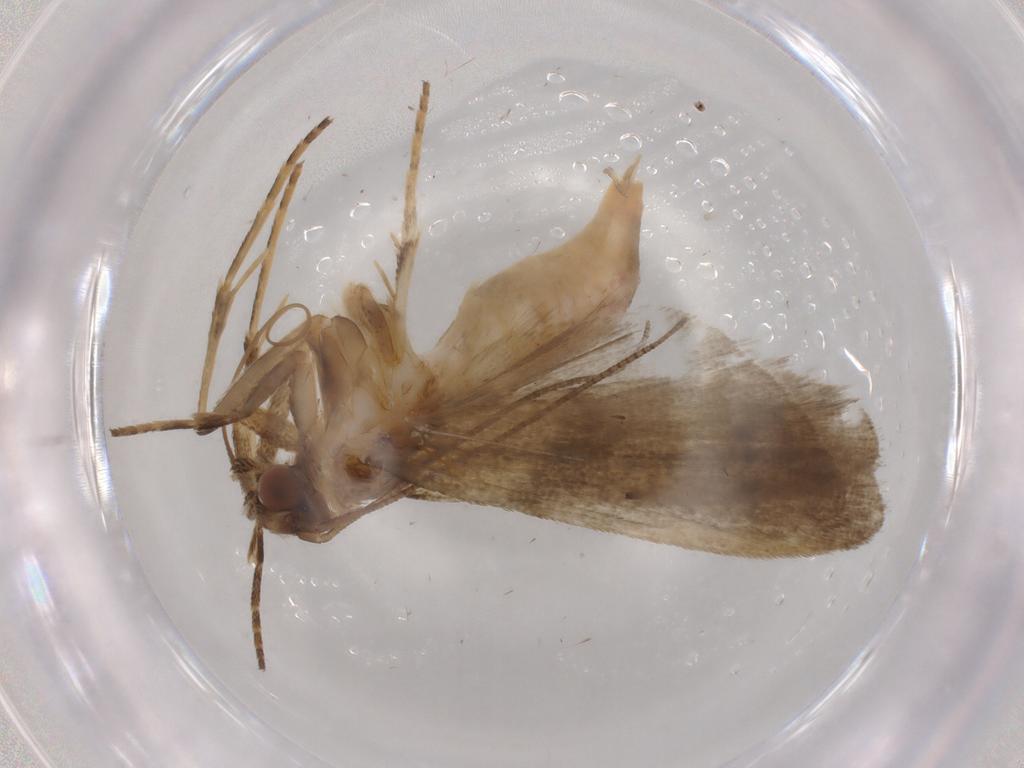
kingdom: Animalia
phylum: Arthropoda
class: Insecta
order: Lepidoptera
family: Noctuidae
